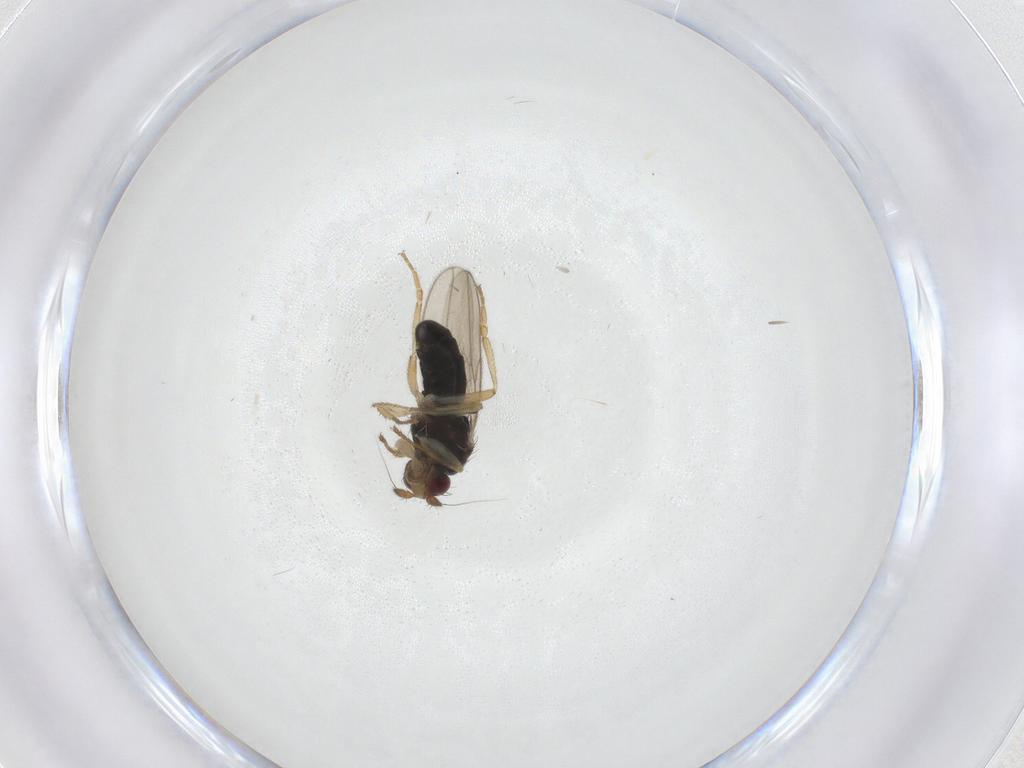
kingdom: Animalia
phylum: Arthropoda
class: Insecta
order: Diptera
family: Sphaeroceridae
